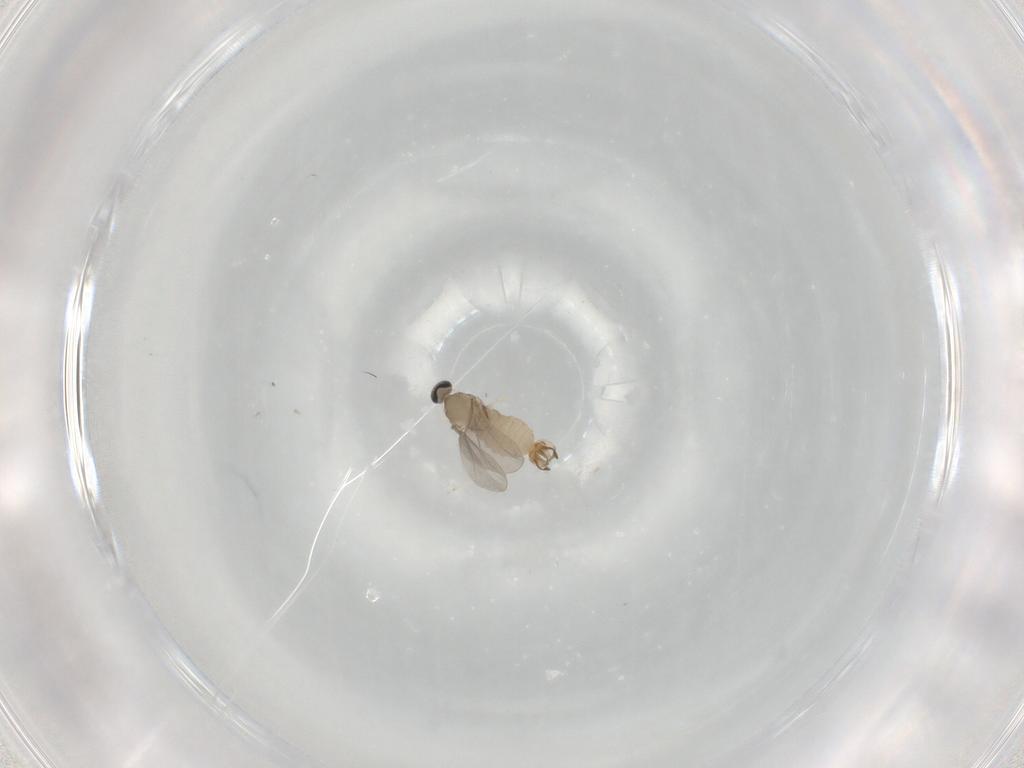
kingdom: Animalia
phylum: Arthropoda
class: Insecta
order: Diptera
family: Cecidomyiidae
